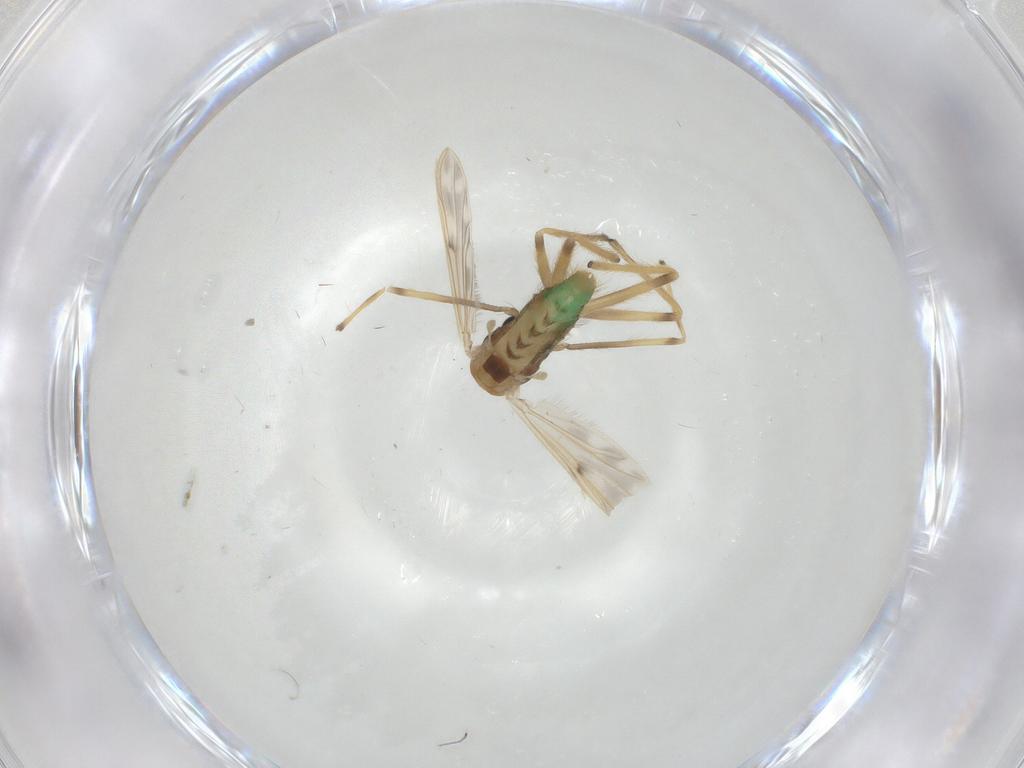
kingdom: Animalia
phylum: Arthropoda
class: Insecta
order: Diptera
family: Chironomidae
